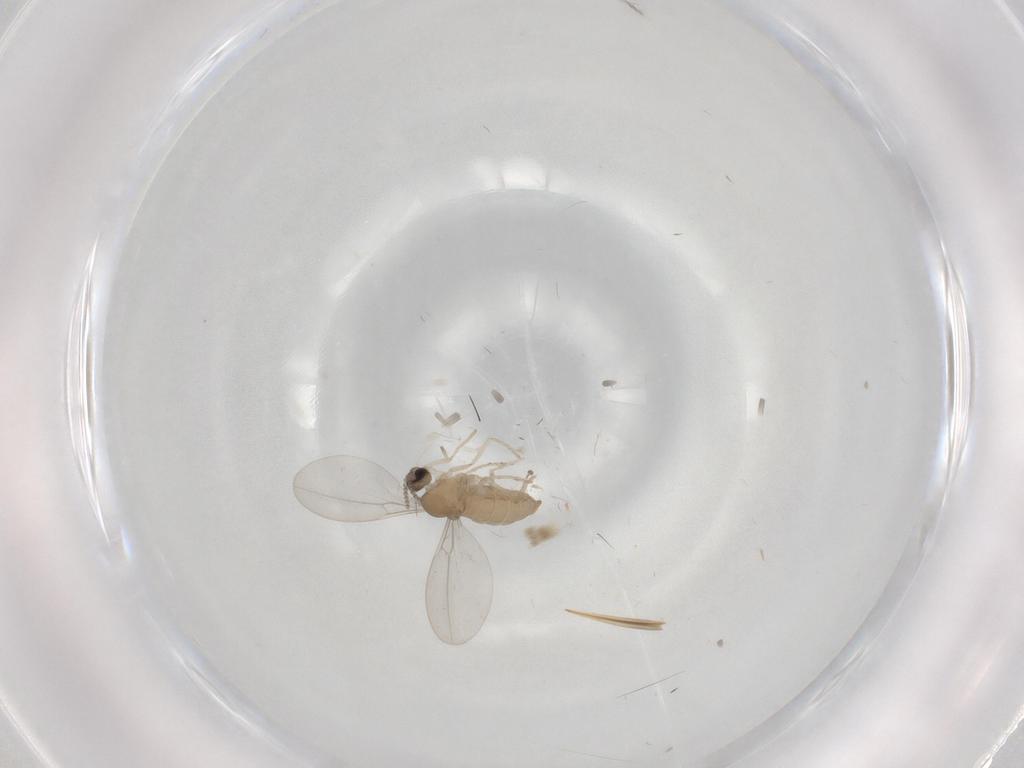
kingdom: Animalia
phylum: Arthropoda
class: Insecta
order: Diptera
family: Cecidomyiidae
